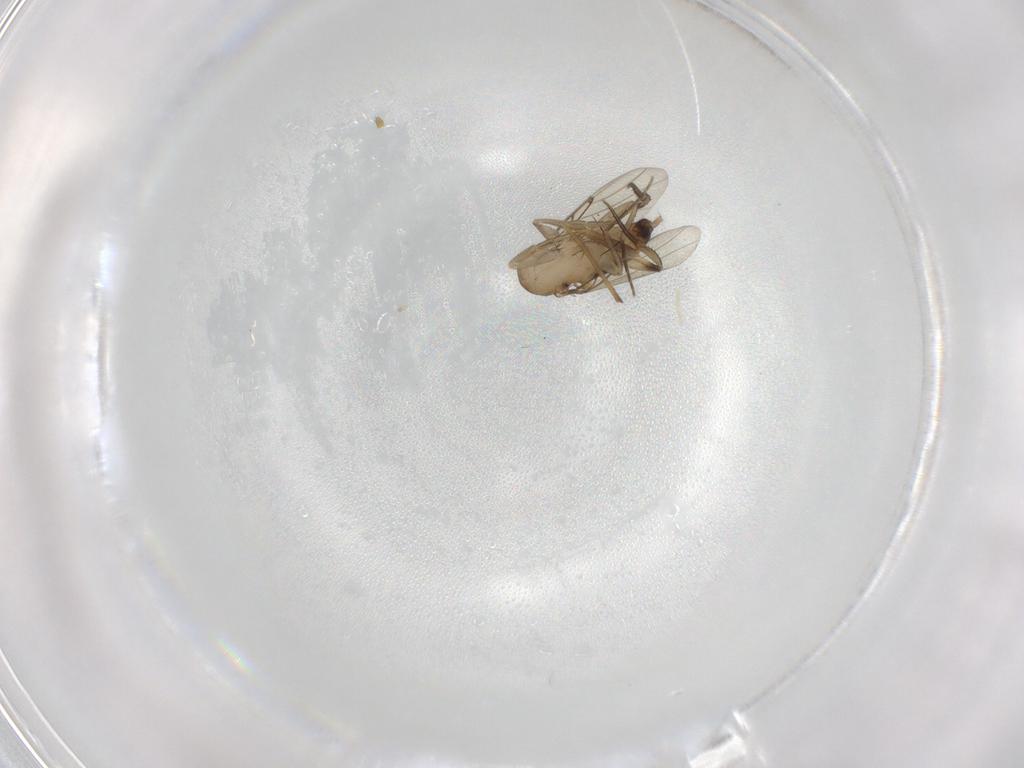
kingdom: Animalia
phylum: Arthropoda
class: Insecta
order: Diptera
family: Phoridae
